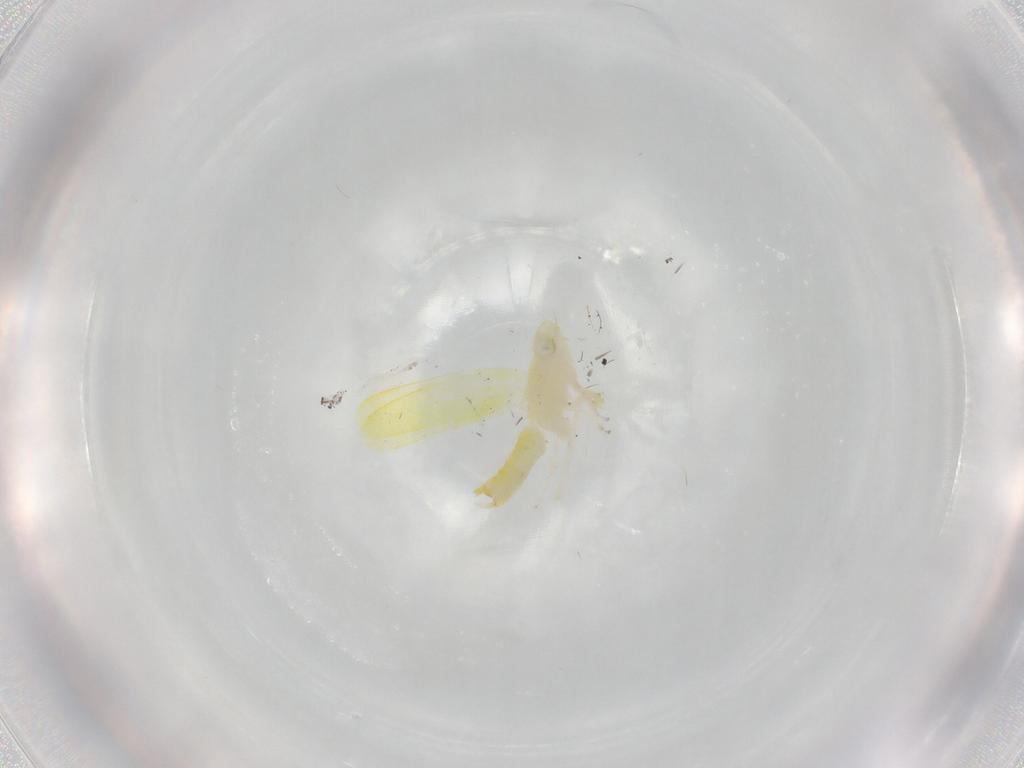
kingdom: Animalia
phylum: Arthropoda
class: Insecta
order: Hemiptera
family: Cicadellidae
